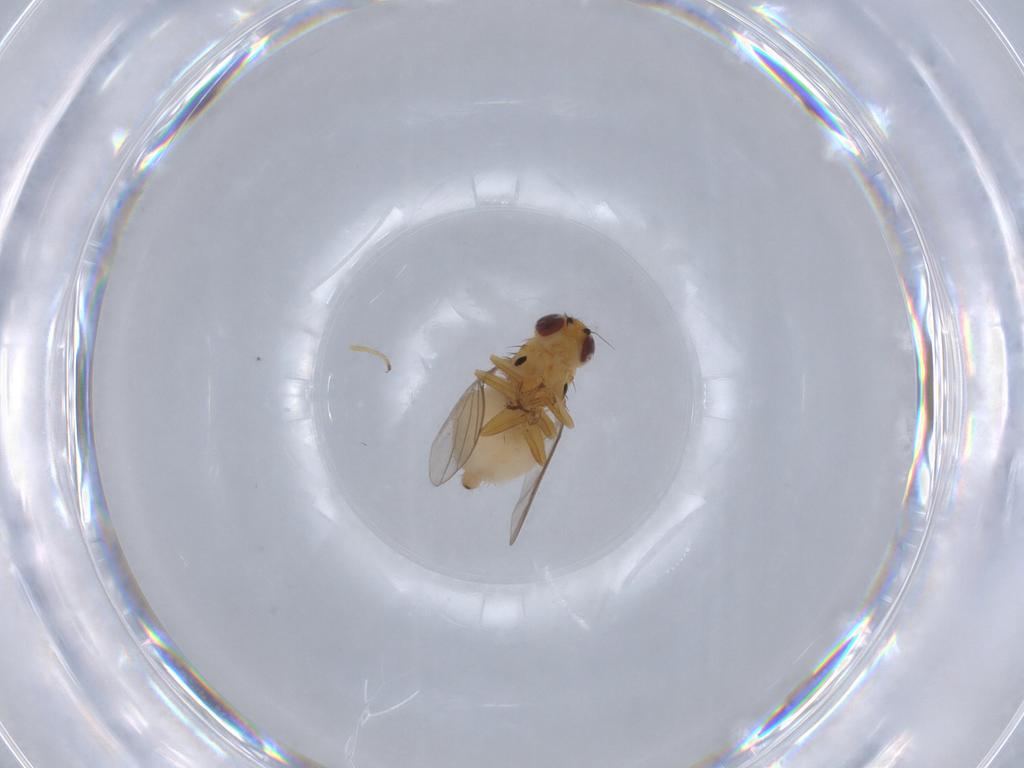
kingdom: Animalia
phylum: Arthropoda
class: Insecta
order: Diptera
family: Chloropidae
